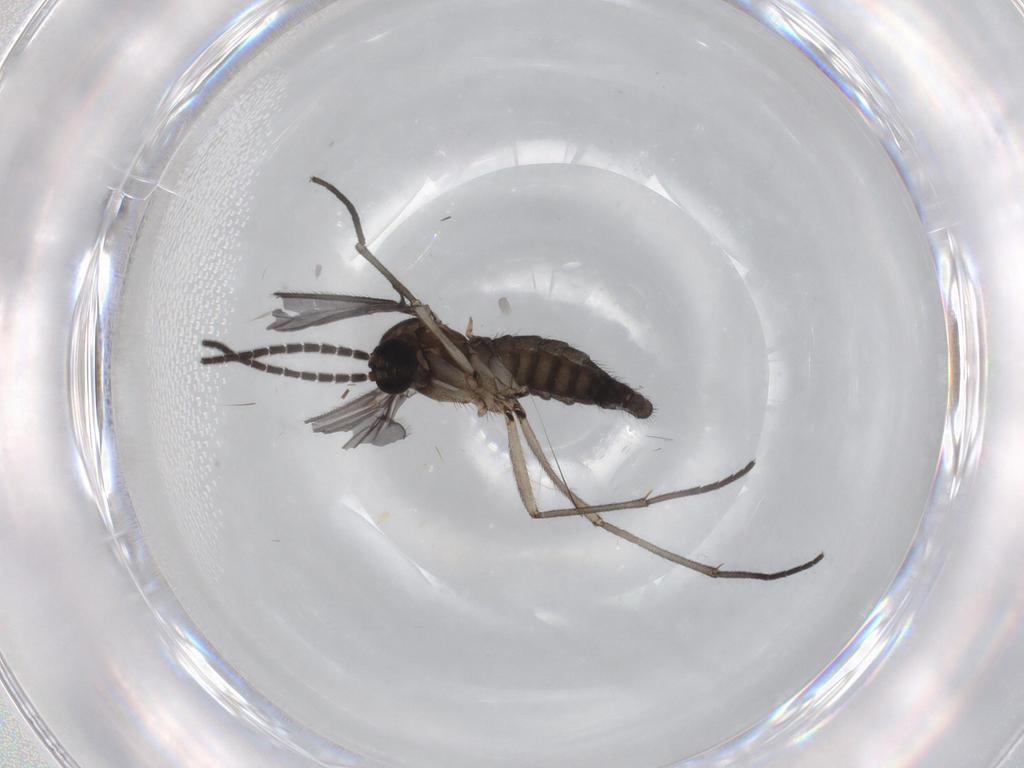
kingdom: Animalia
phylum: Arthropoda
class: Insecta
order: Diptera
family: Sciaridae
